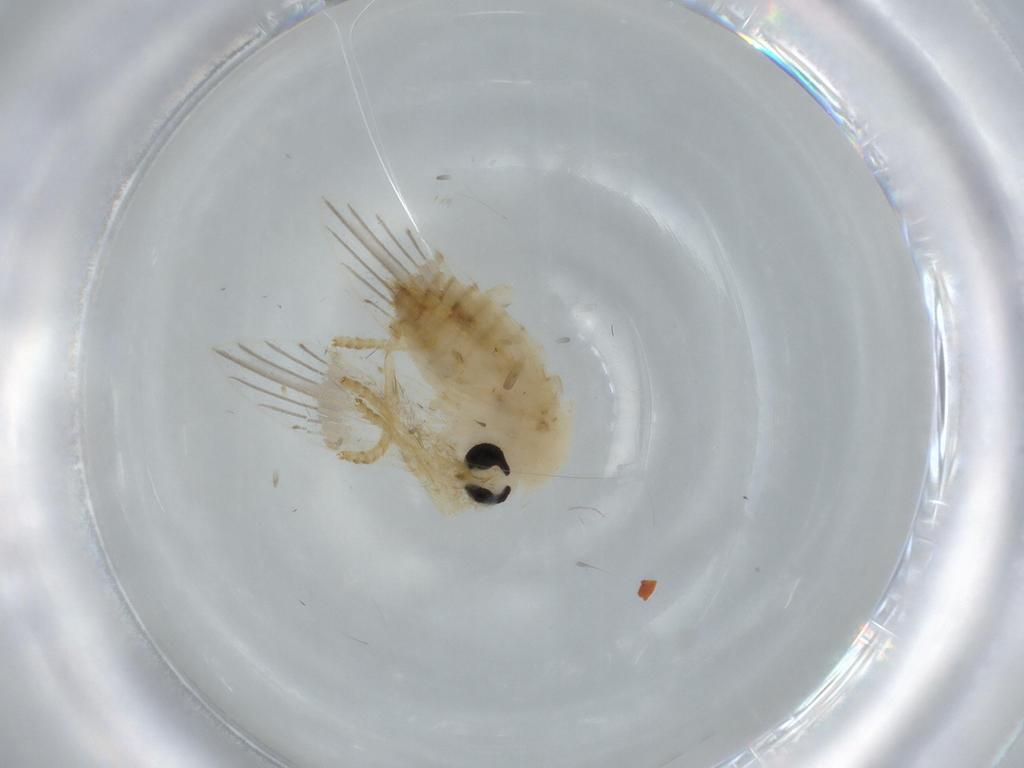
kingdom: Animalia
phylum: Arthropoda
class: Insecta
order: Diptera
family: Psychodidae
